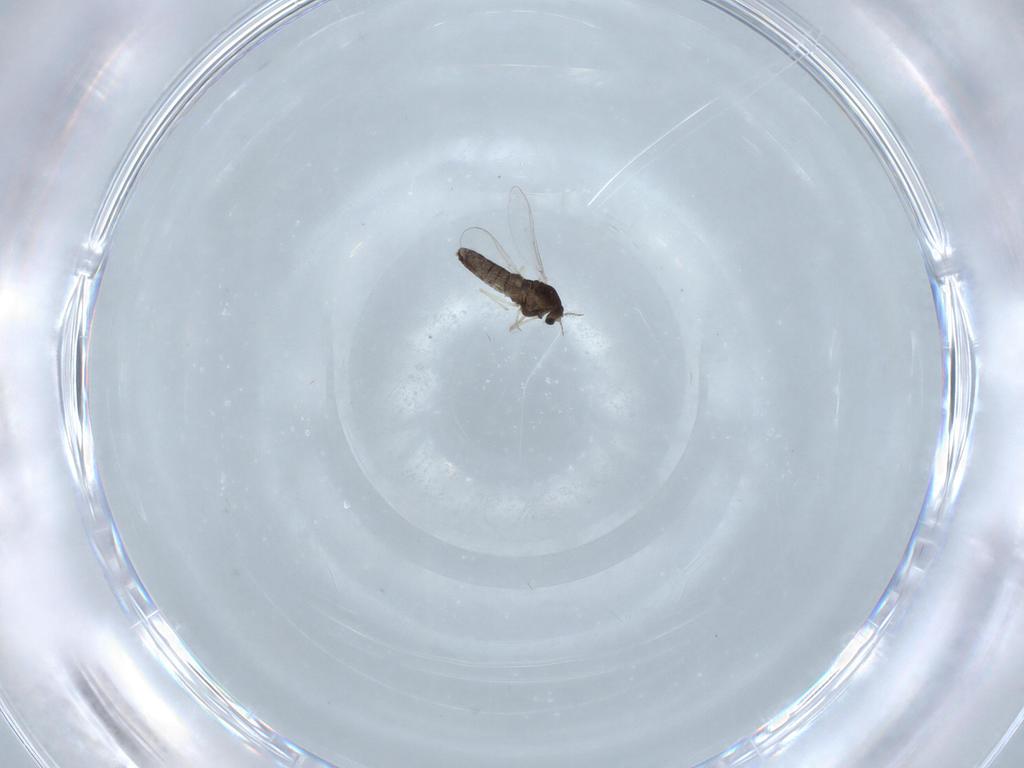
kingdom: Animalia
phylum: Arthropoda
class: Insecta
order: Diptera
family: Chironomidae
